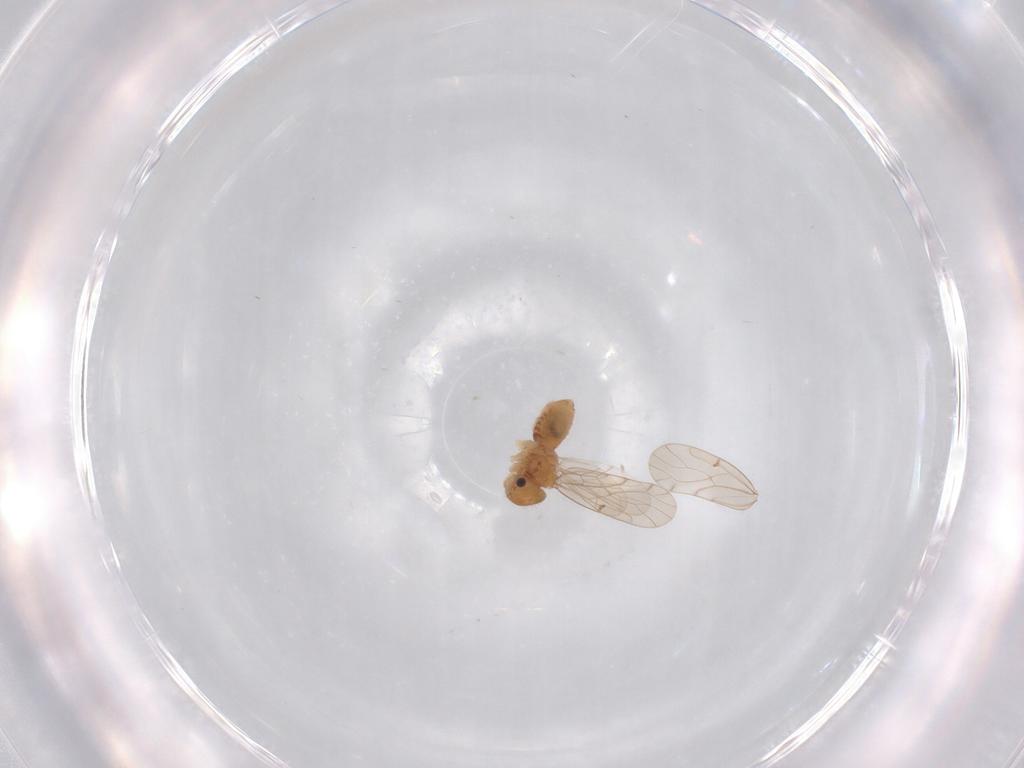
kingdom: Animalia
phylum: Arthropoda
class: Insecta
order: Psocodea
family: Ectopsocidae
